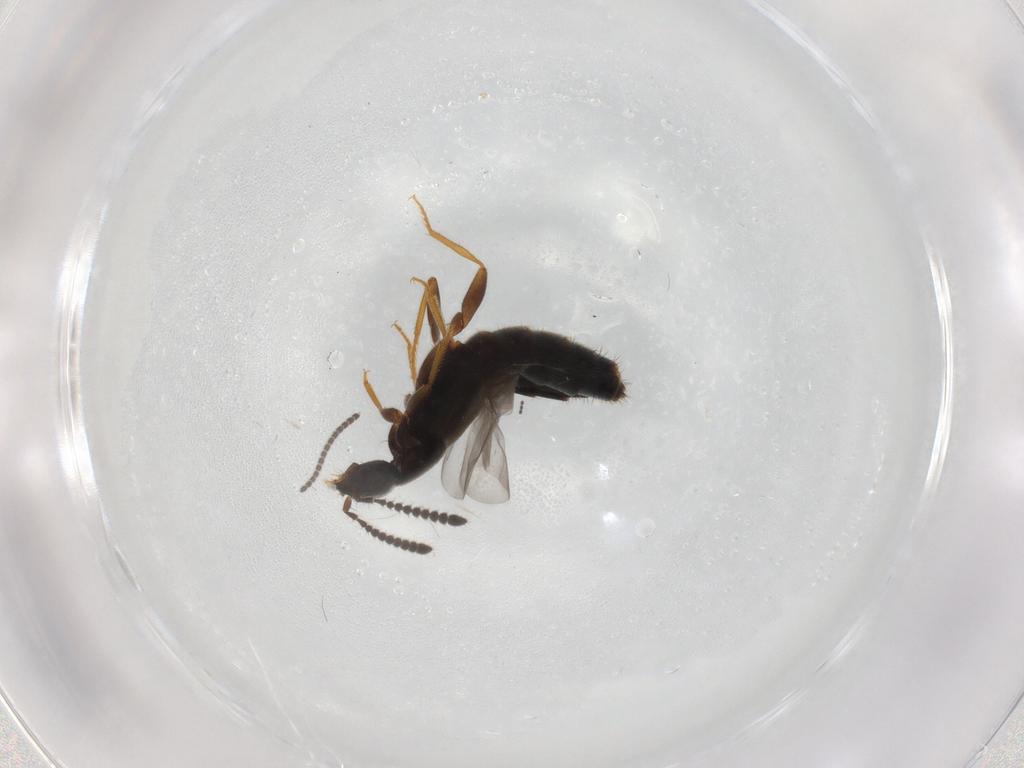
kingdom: Animalia
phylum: Arthropoda
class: Insecta
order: Coleoptera
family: Staphylinidae
